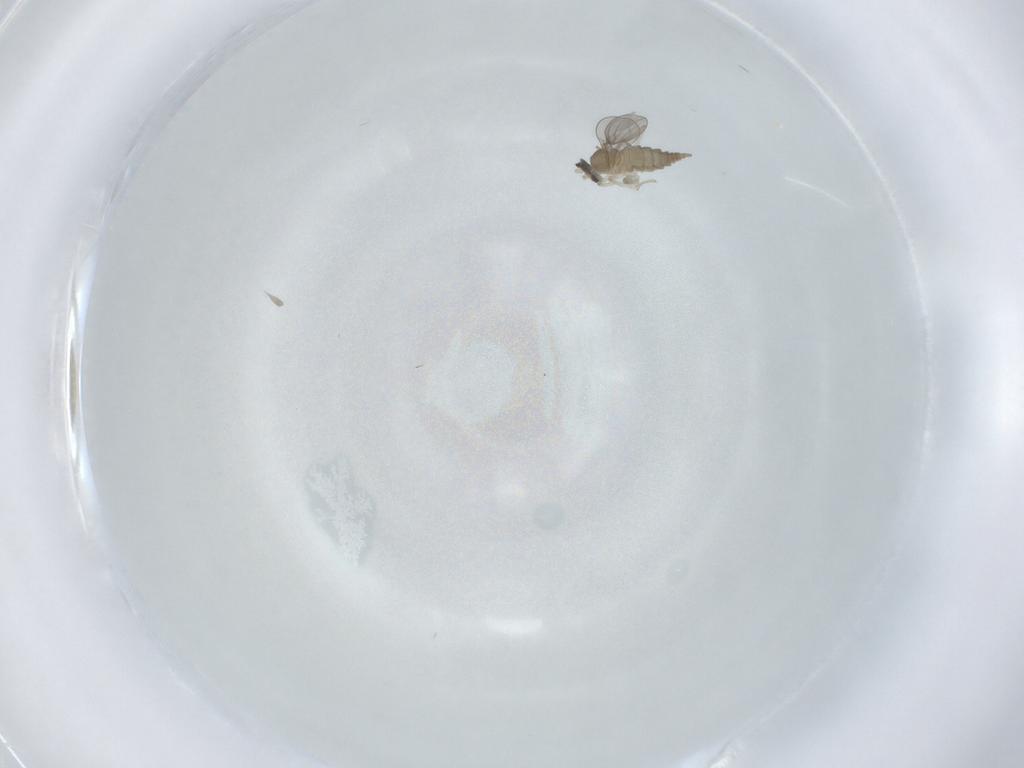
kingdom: Animalia
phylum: Arthropoda
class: Insecta
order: Diptera
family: Cecidomyiidae
